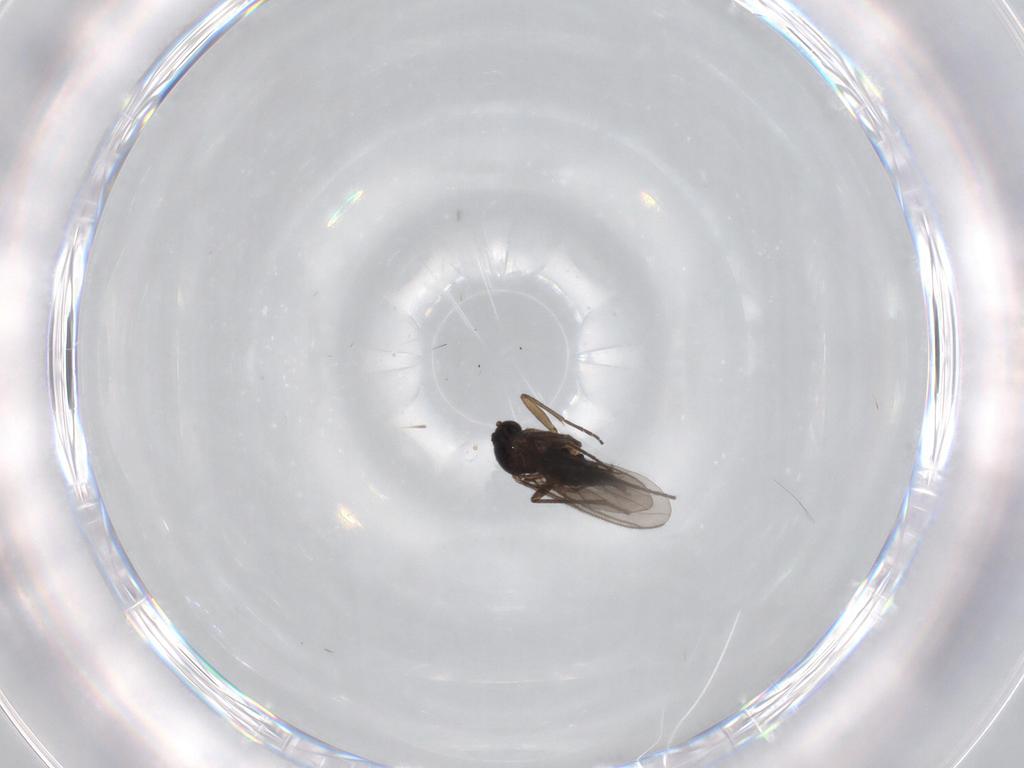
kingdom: Animalia
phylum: Arthropoda
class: Insecta
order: Diptera
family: Sciaridae
